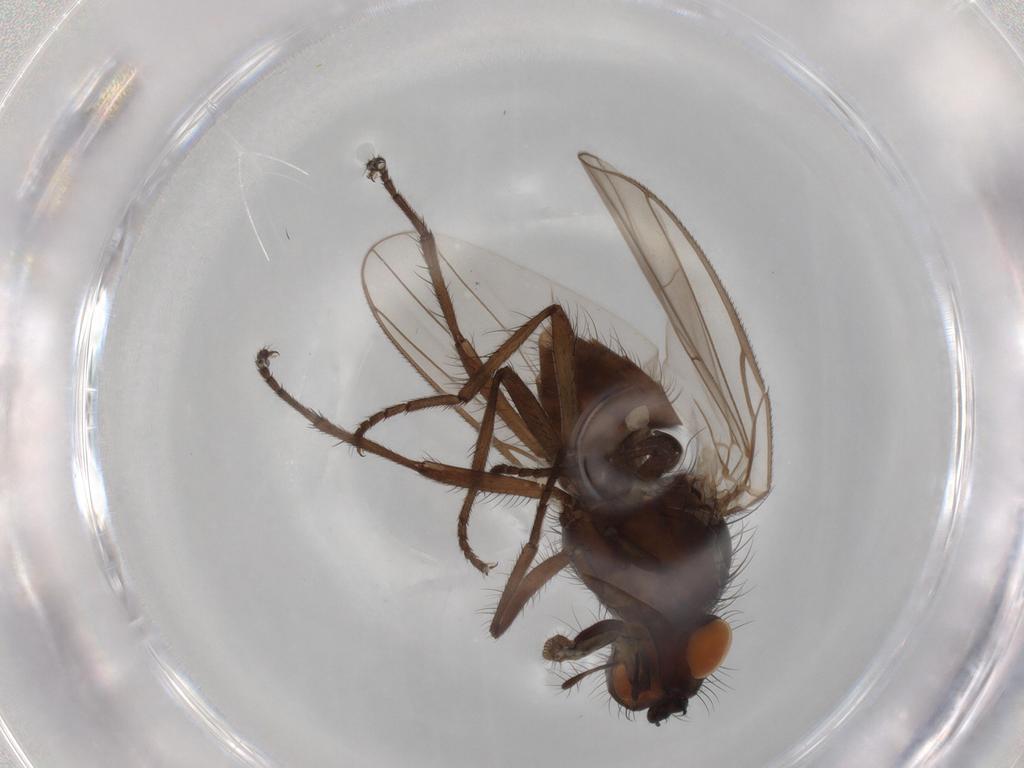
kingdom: Animalia
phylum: Arthropoda
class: Insecta
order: Diptera
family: Anthomyiidae
